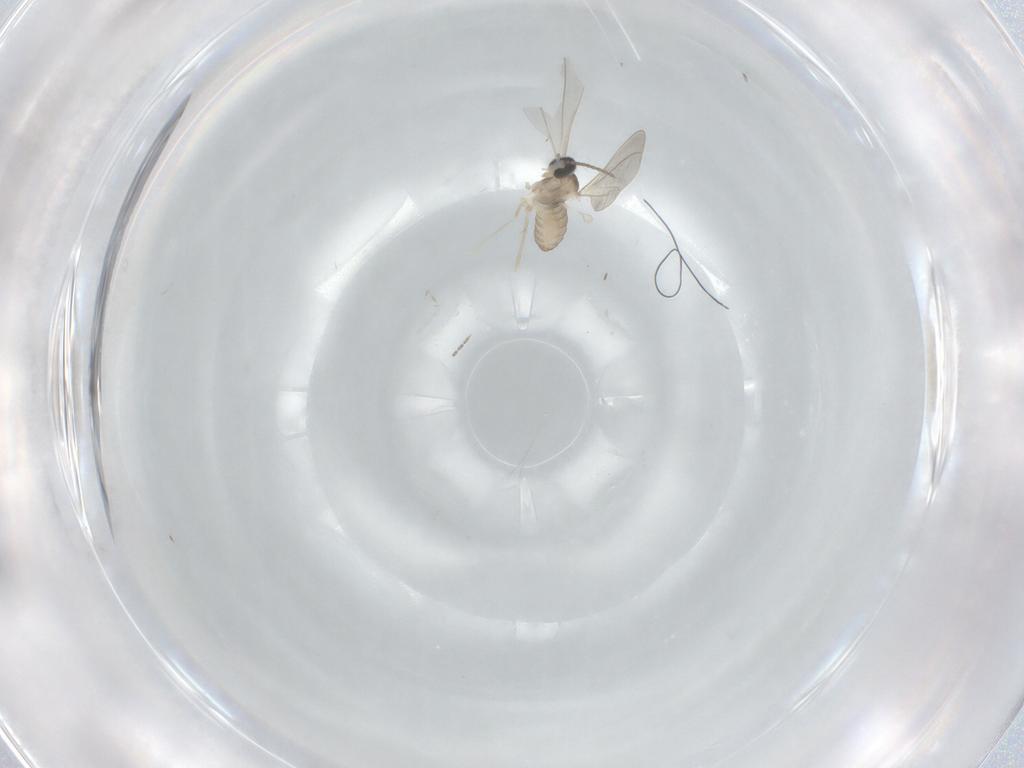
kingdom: Animalia
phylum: Arthropoda
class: Insecta
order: Diptera
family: Cecidomyiidae
